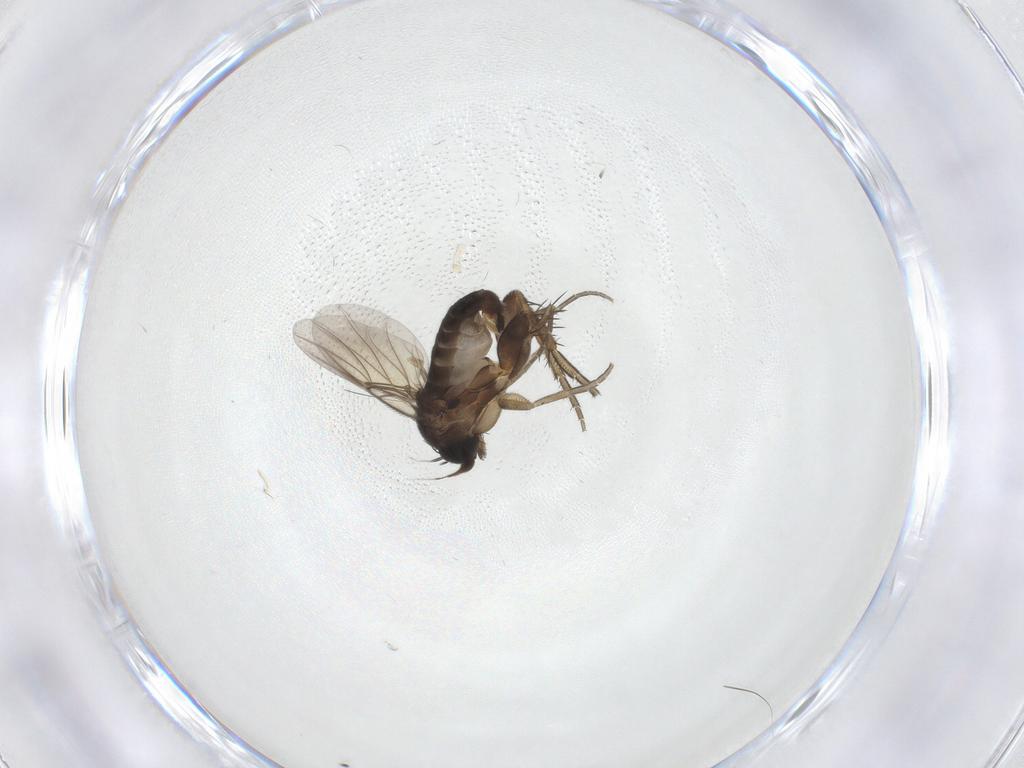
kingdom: Animalia
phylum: Arthropoda
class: Insecta
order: Diptera
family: Phoridae
